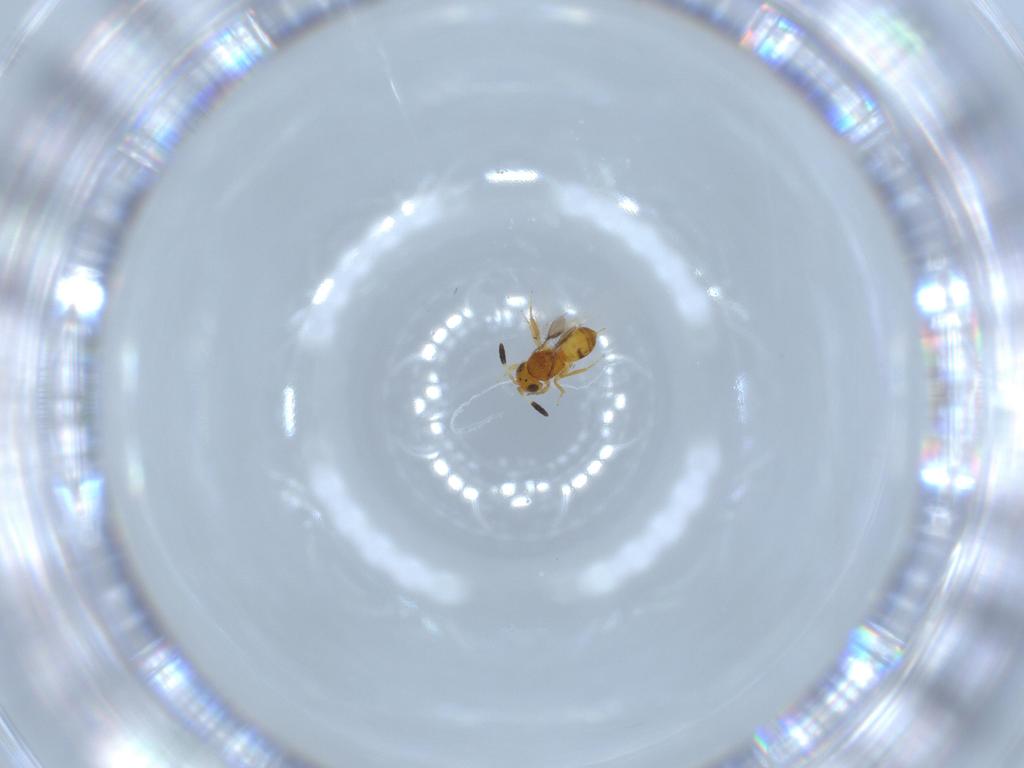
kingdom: Animalia
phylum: Arthropoda
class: Insecta
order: Hymenoptera
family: Scelionidae
